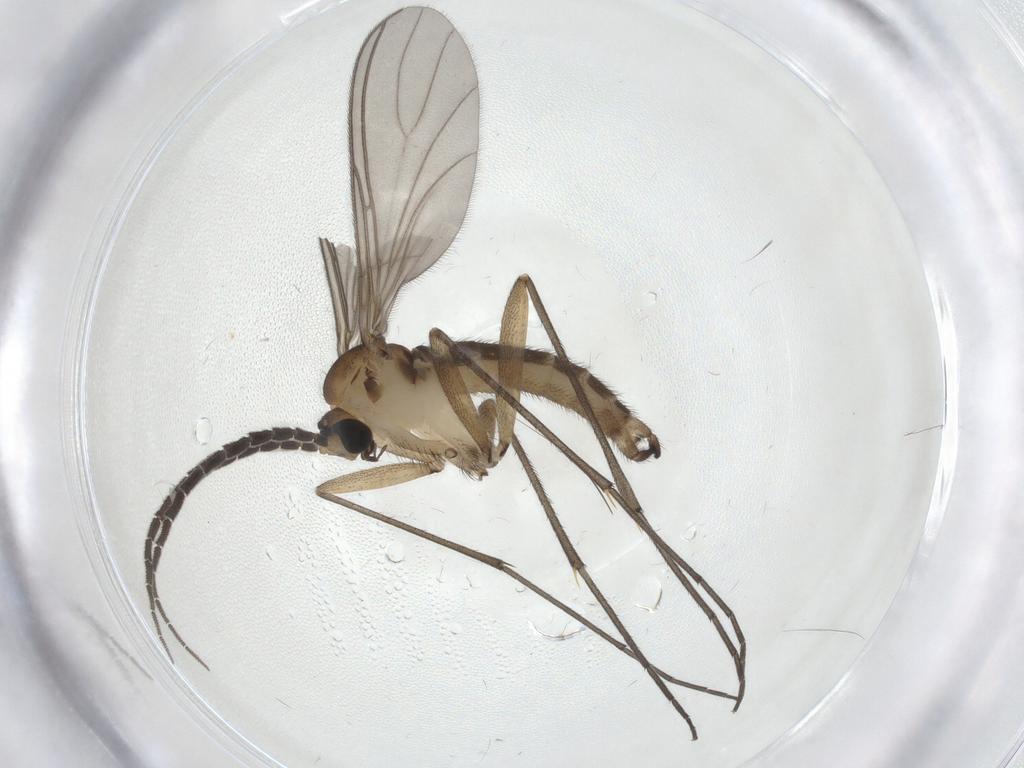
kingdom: Animalia
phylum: Arthropoda
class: Insecta
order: Diptera
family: Sciaridae
